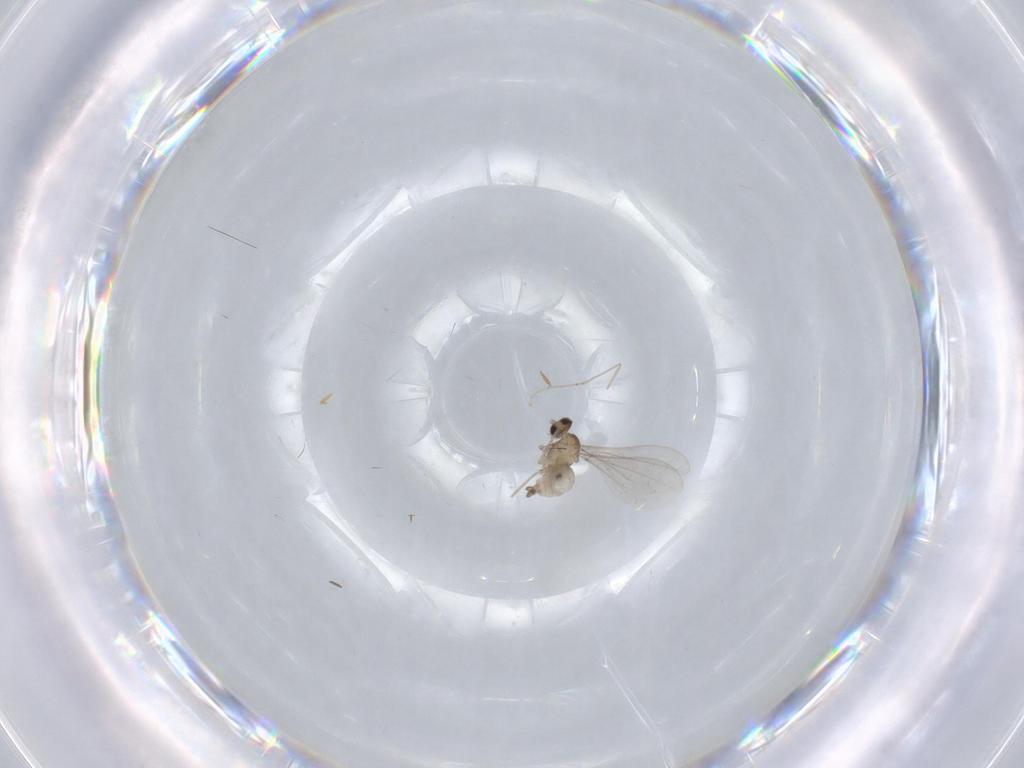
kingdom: Animalia
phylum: Arthropoda
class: Insecta
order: Diptera
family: Cecidomyiidae
